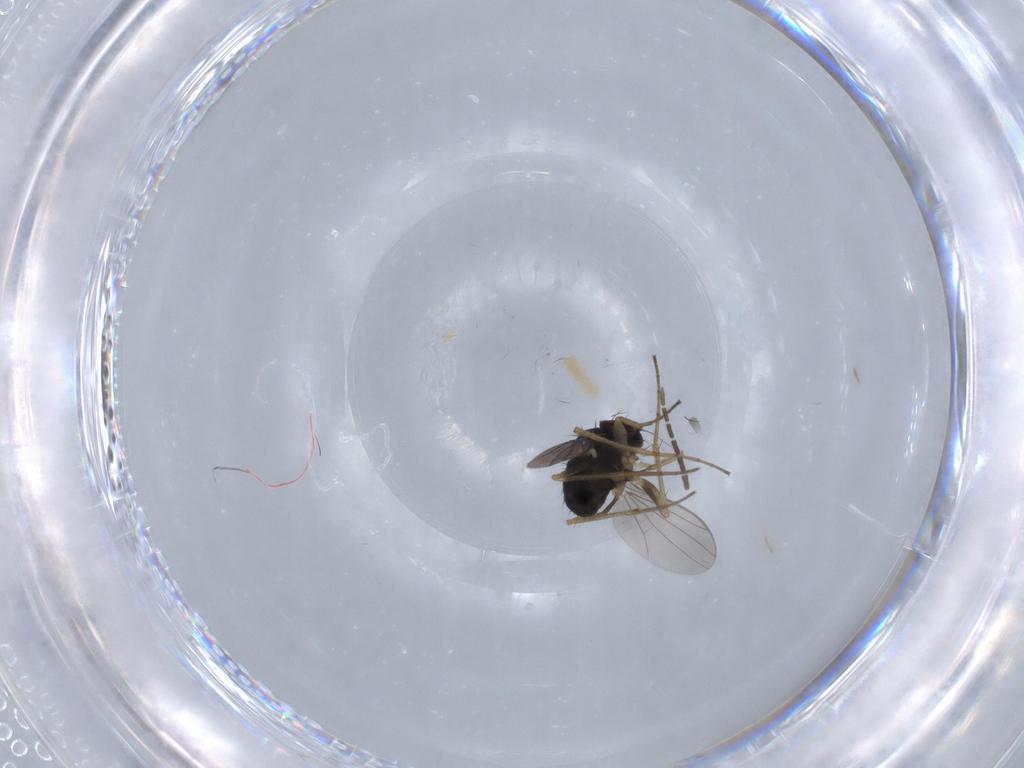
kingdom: Animalia
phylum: Arthropoda
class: Insecta
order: Diptera
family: Dolichopodidae
